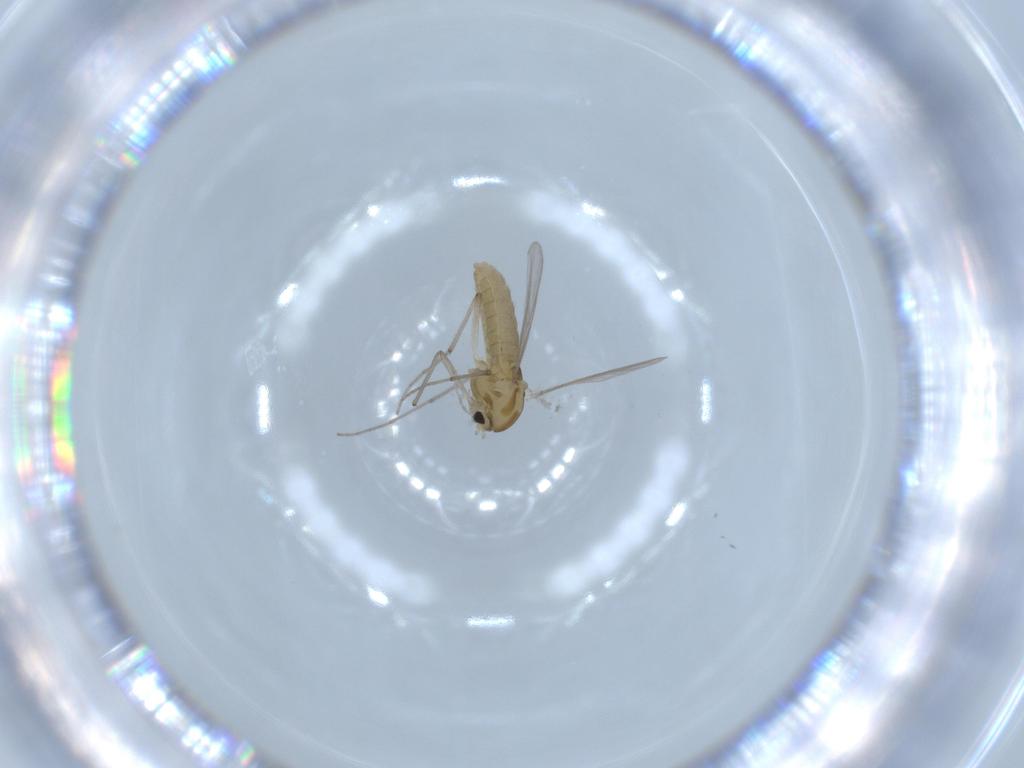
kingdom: Animalia
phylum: Arthropoda
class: Insecta
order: Diptera
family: Chironomidae
